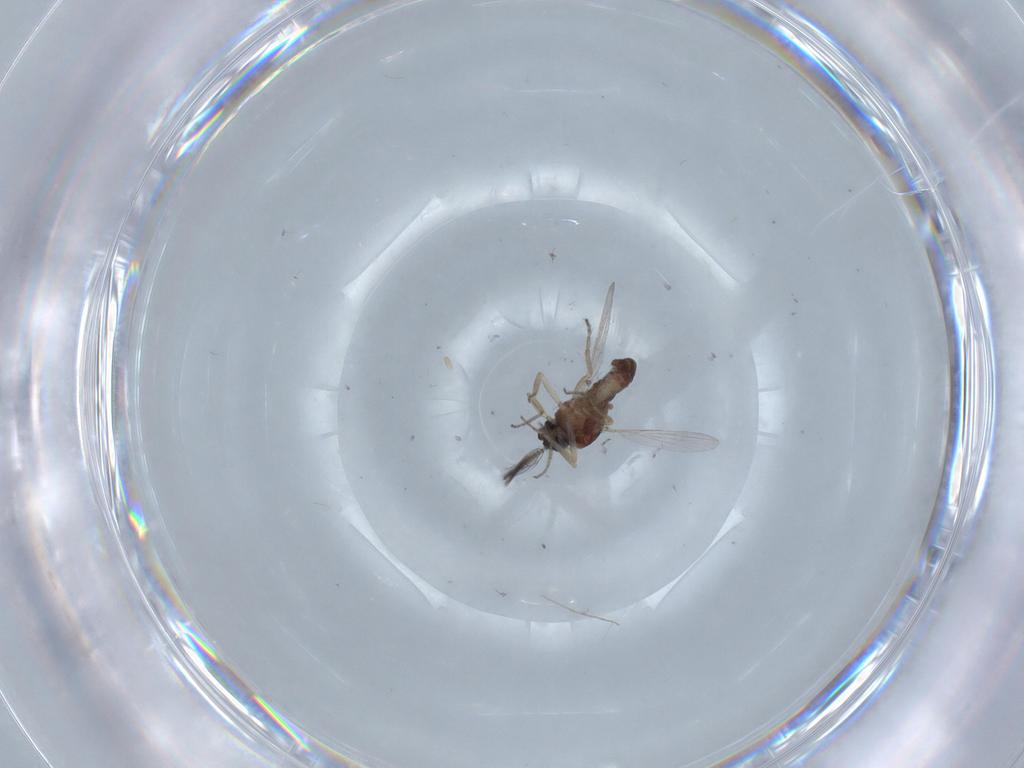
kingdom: Animalia
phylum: Arthropoda
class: Insecta
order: Diptera
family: Ceratopogonidae
